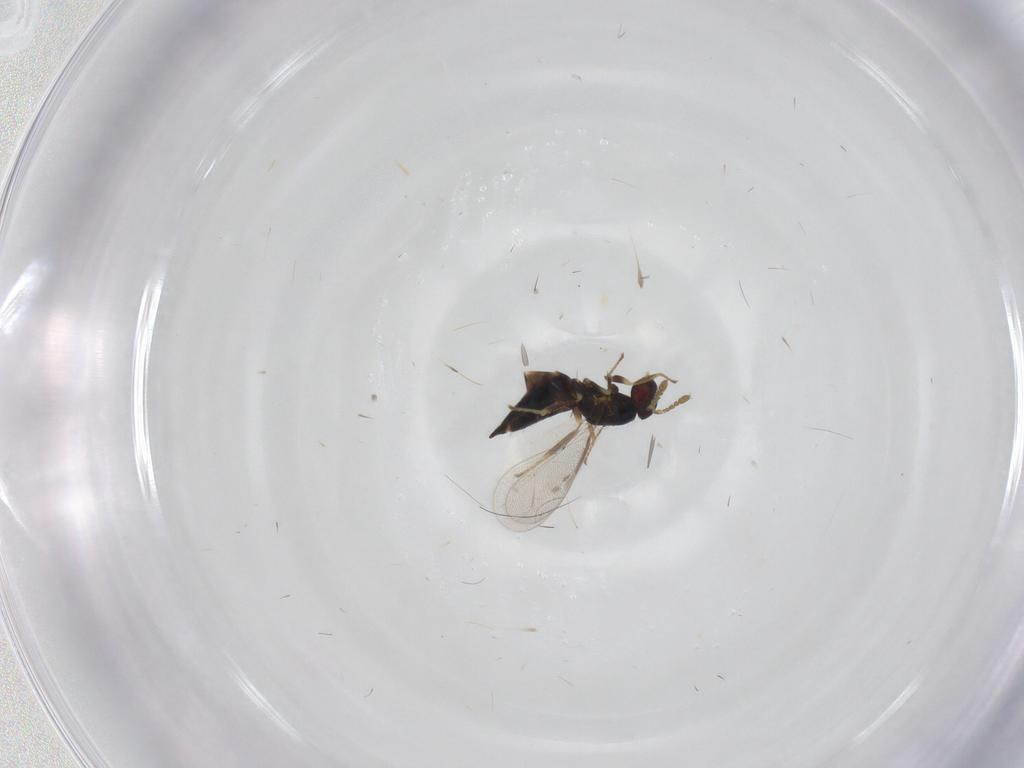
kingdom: Animalia
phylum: Arthropoda
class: Insecta
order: Hymenoptera
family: Eulophidae
